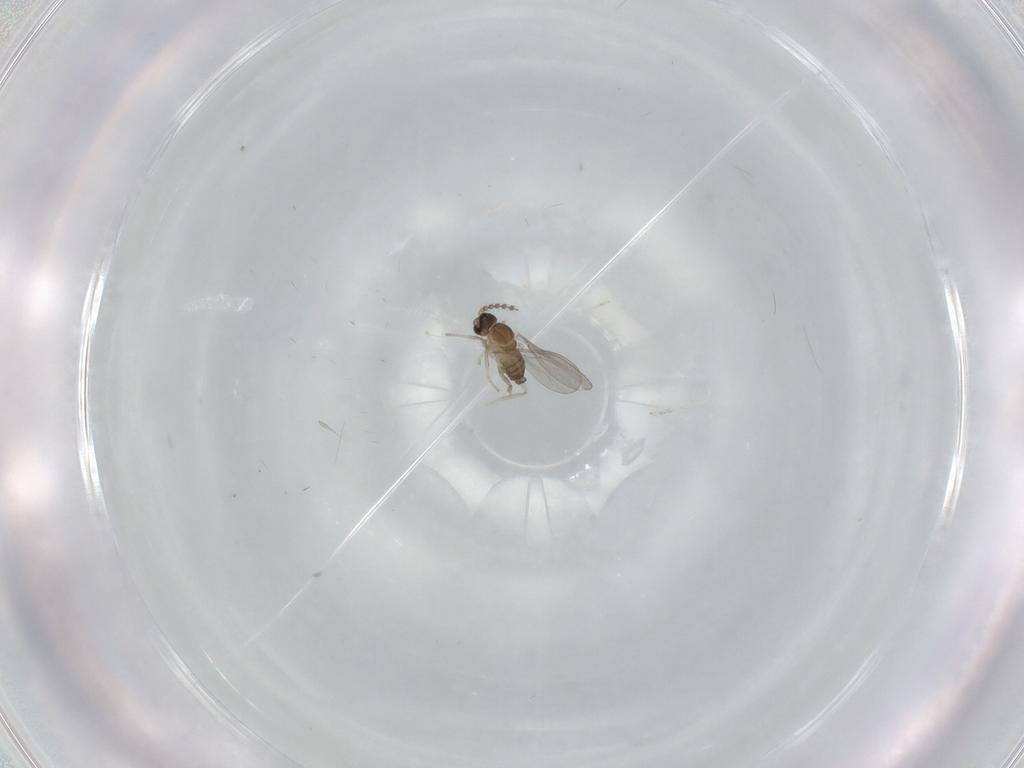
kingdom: Animalia
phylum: Arthropoda
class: Insecta
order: Diptera
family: Cecidomyiidae
